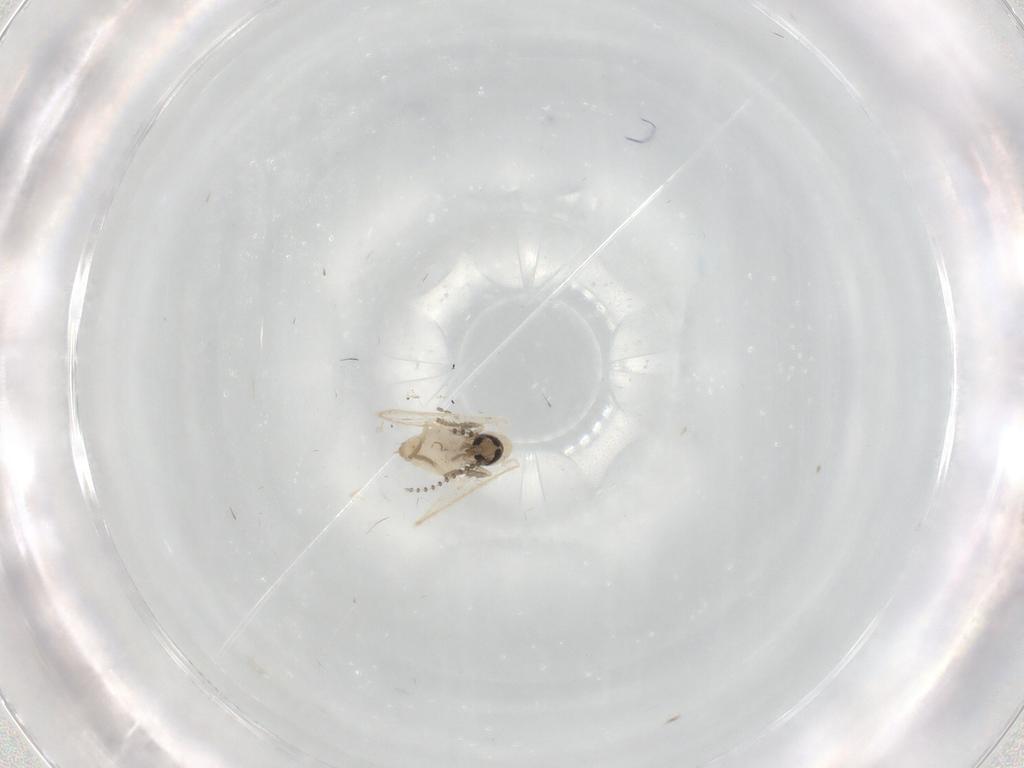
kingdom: Animalia
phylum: Arthropoda
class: Insecta
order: Diptera
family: Psychodidae
